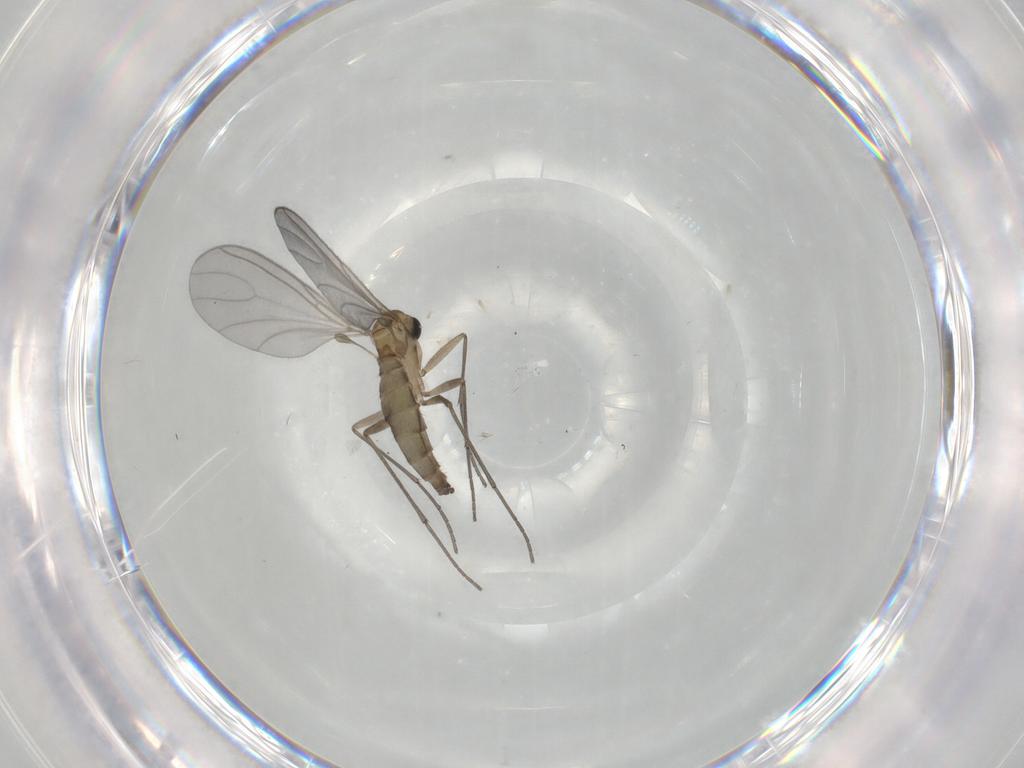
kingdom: Animalia
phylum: Arthropoda
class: Insecta
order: Diptera
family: Sciaridae
